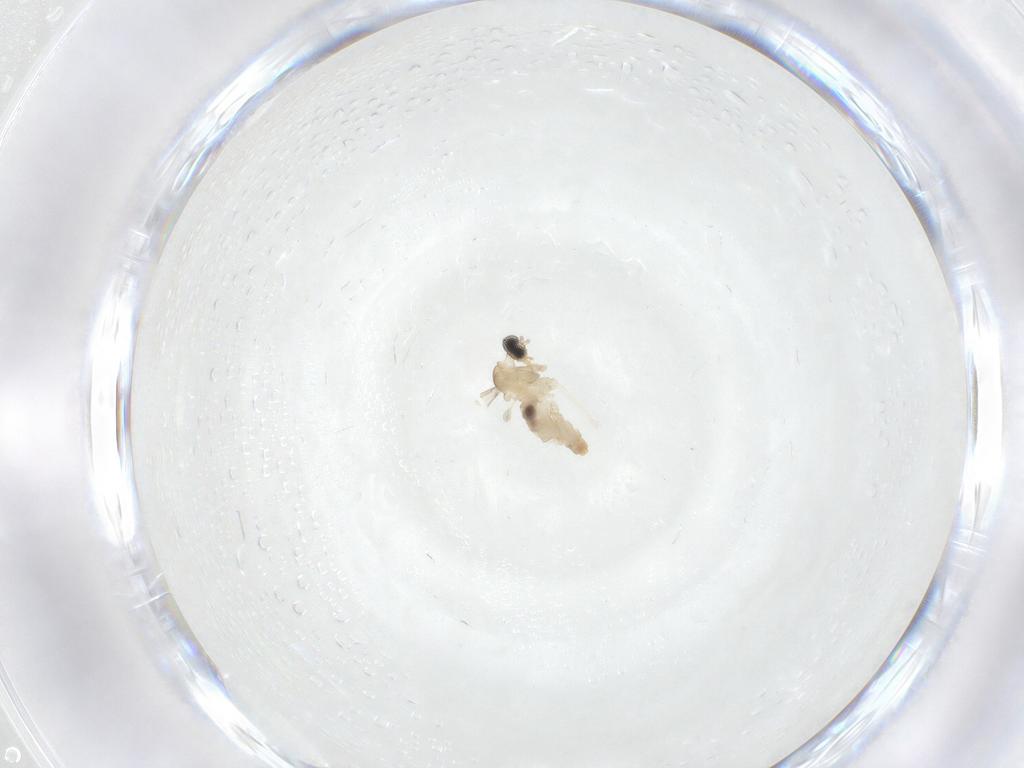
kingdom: Animalia
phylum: Arthropoda
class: Insecta
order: Diptera
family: Cecidomyiidae
